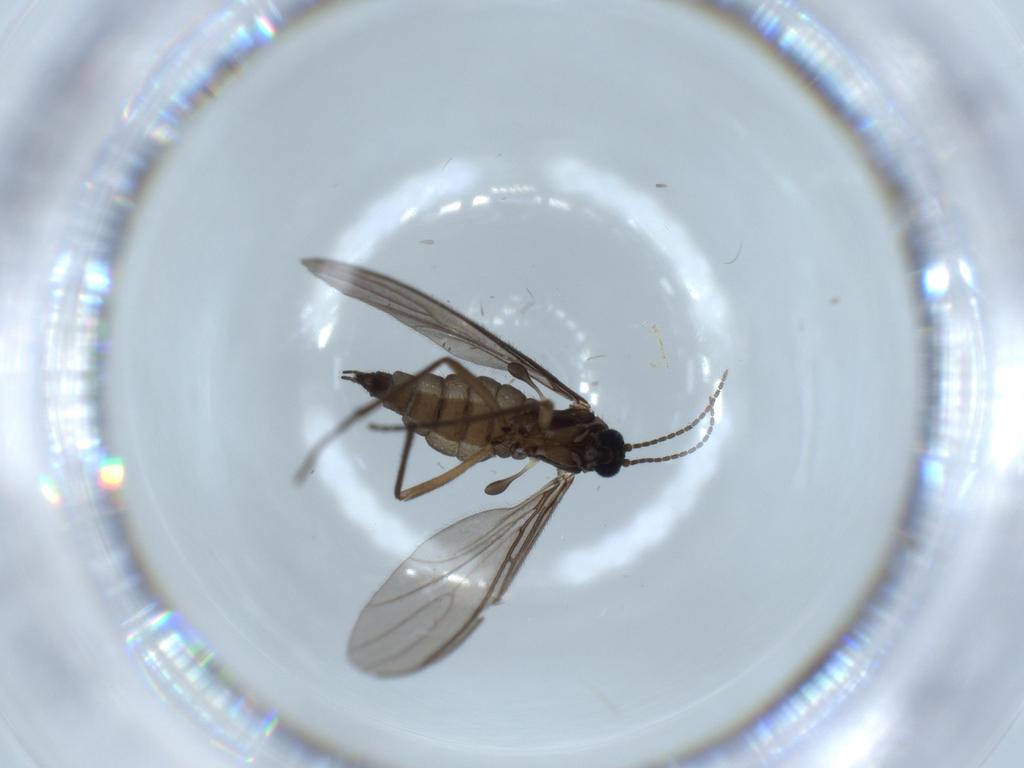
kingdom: Animalia
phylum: Arthropoda
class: Insecta
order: Diptera
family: Sciaridae
